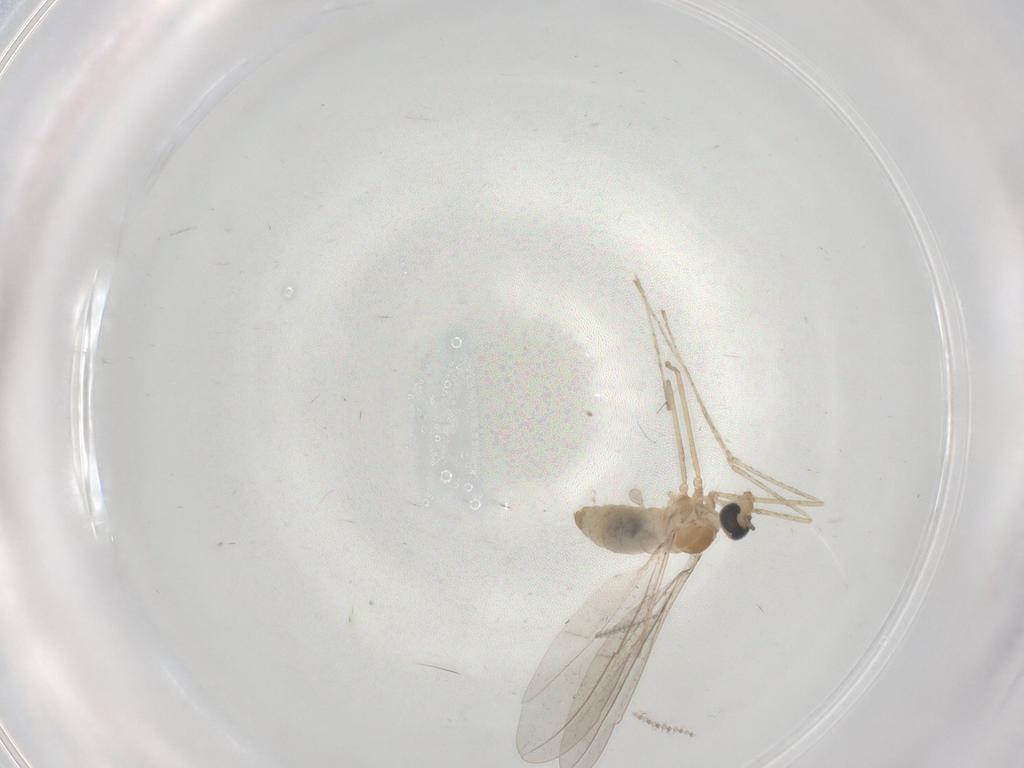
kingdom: Animalia
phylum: Arthropoda
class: Insecta
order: Diptera
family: Cecidomyiidae
